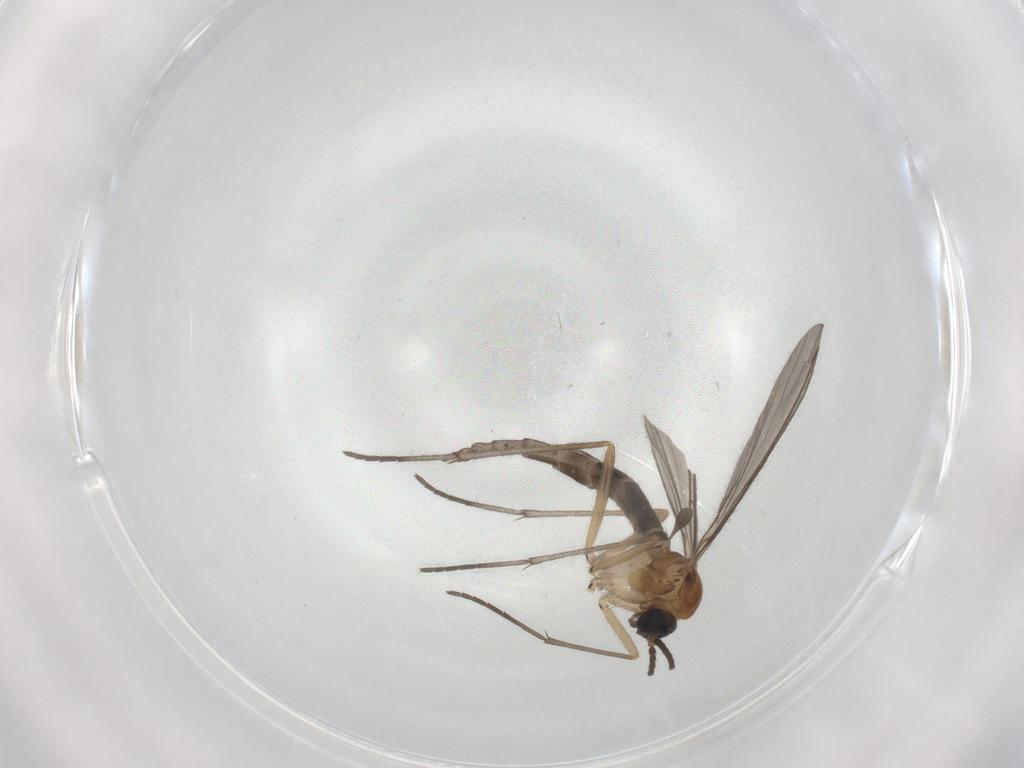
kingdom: Animalia
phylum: Arthropoda
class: Insecta
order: Diptera
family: Sciaridae
